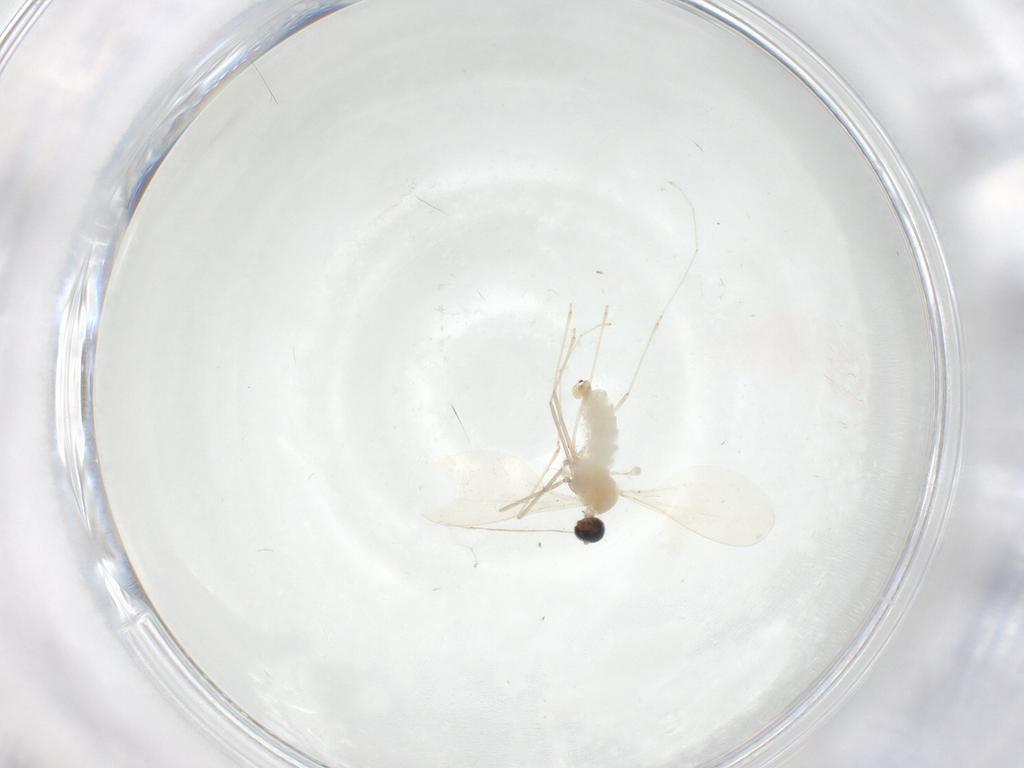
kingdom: Animalia
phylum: Arthropoda
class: Insecta
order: Diptera
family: Cecidomyiidae
